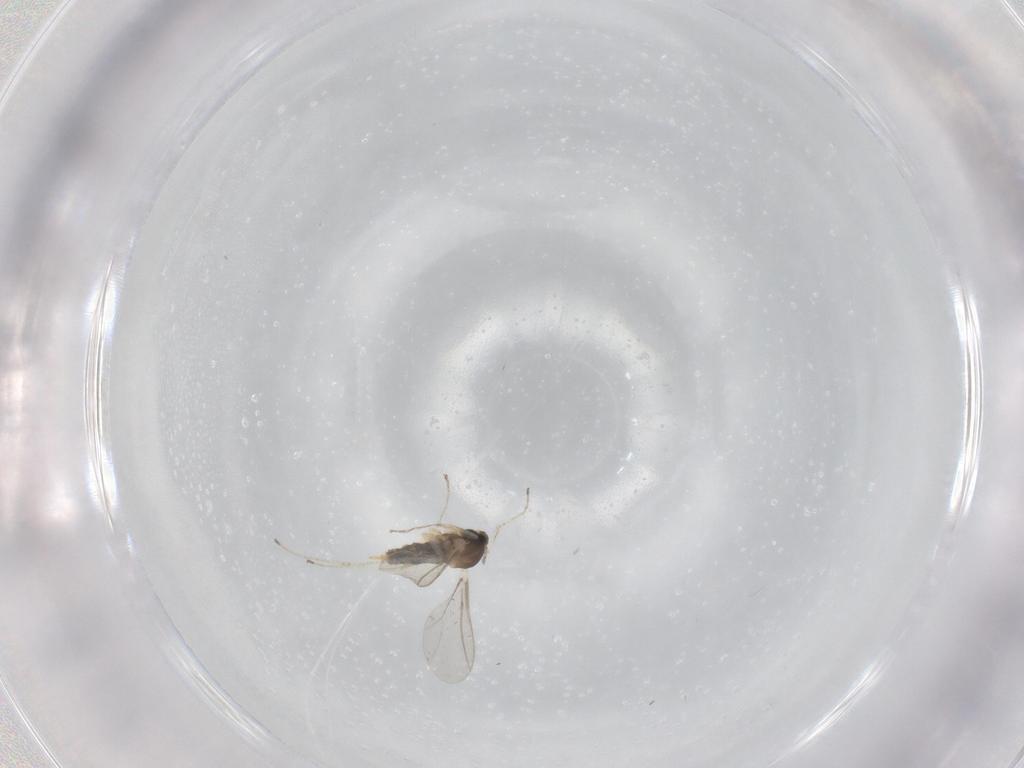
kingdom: Animalia
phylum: Arthropoda
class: Insecta
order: Diptera
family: Cecidomyiidae
